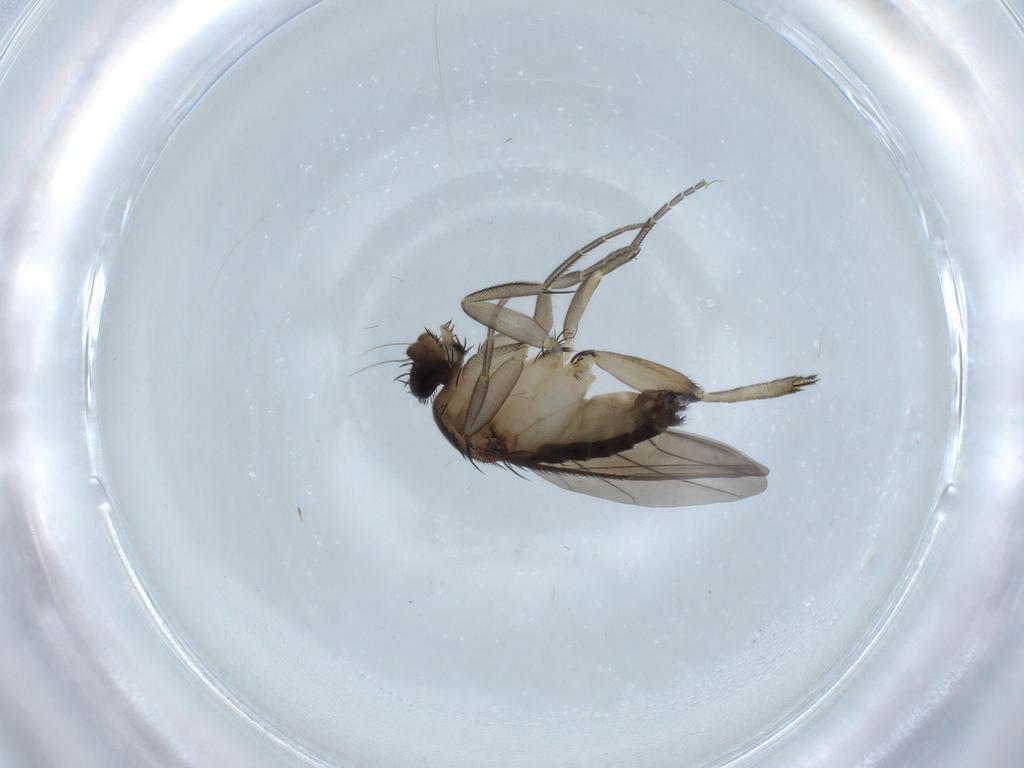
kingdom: Animalia
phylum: Arthropoda
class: Insecta
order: Diptera
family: Phoridae
